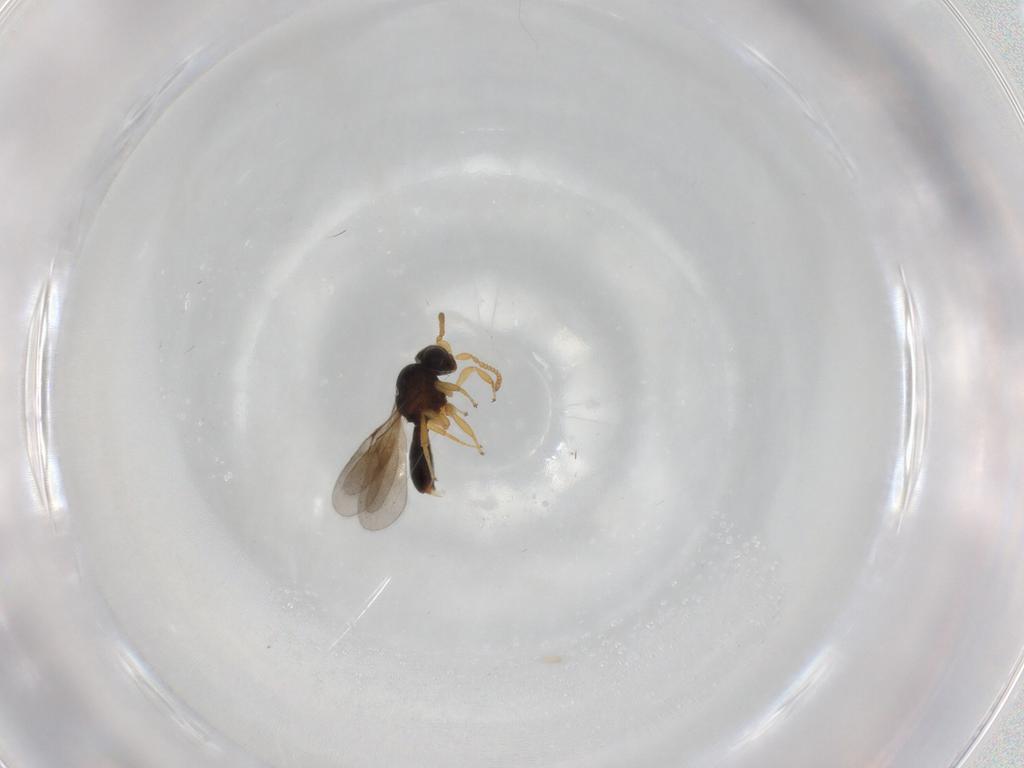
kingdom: Animalia
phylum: Arthropoda
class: Insecta
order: Hymenoptera
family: Scelionidae
